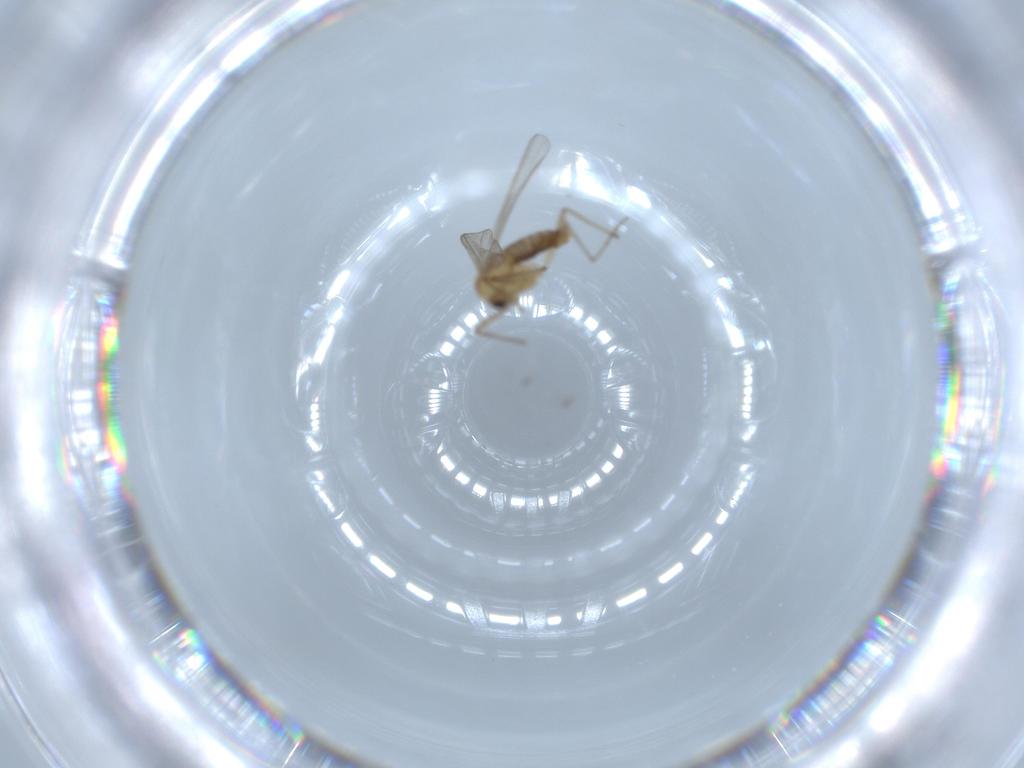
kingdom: Animalia
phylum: Arthropoda
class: Insecta
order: Diptera
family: Chironomidae
